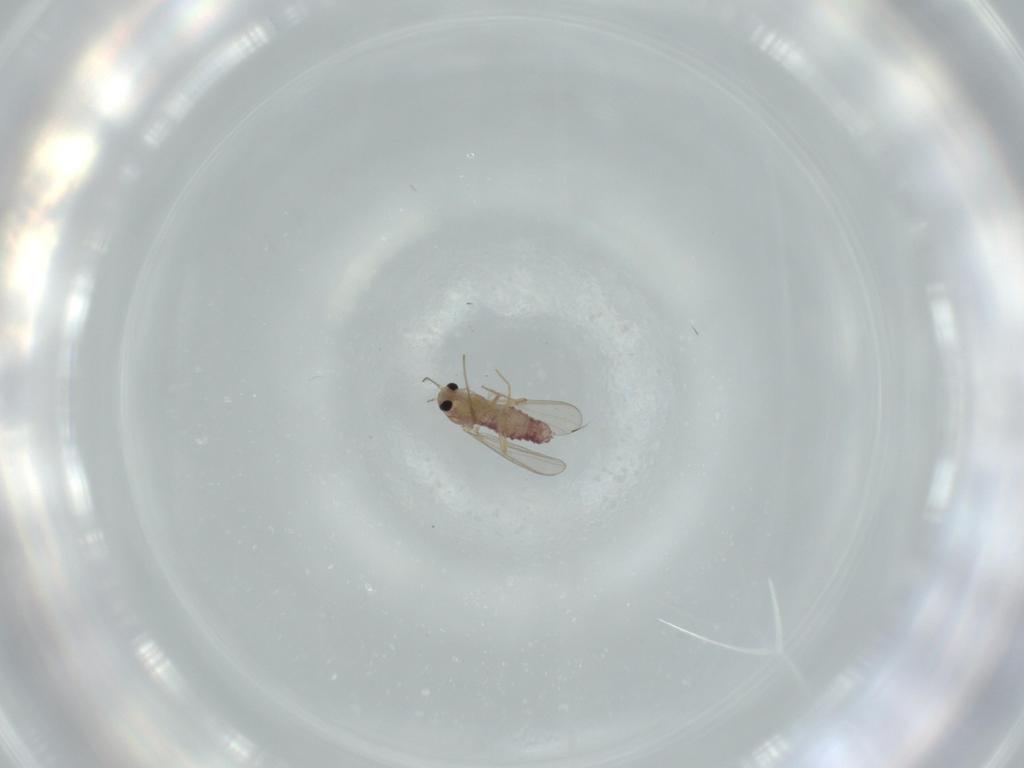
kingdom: Animalia
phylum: Arthropoda
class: Insecta
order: Diptera
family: Chironomidae
